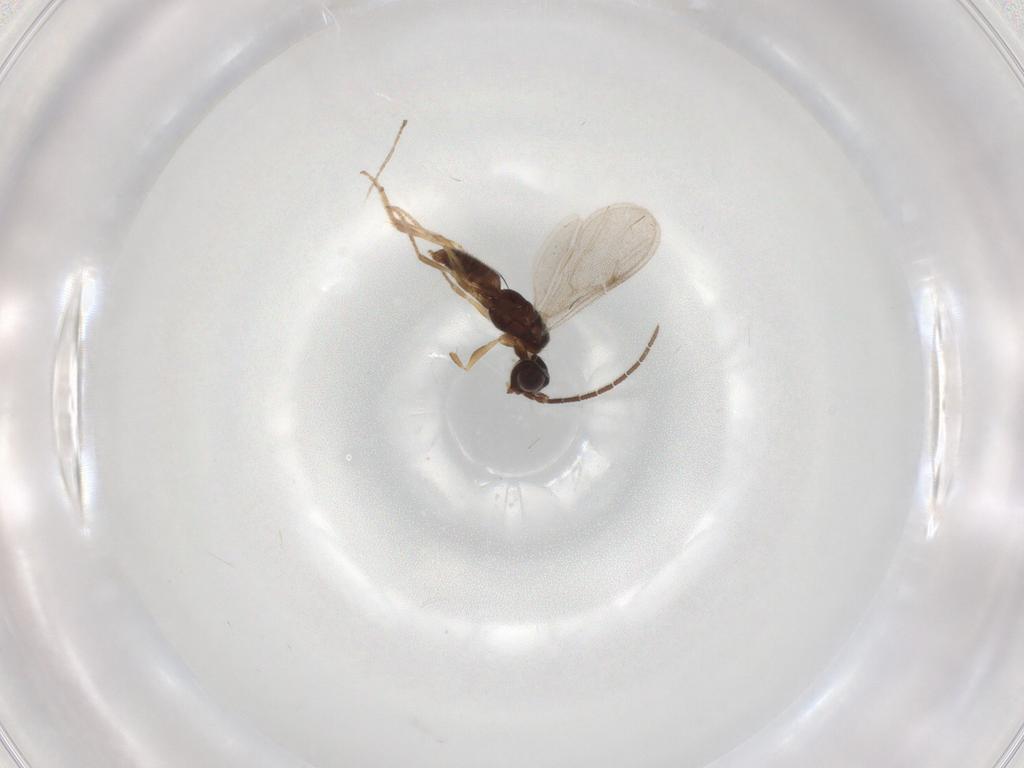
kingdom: Animalia
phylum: Arthropoda
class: Insecta
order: Hymenoptera
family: Dryinidae
